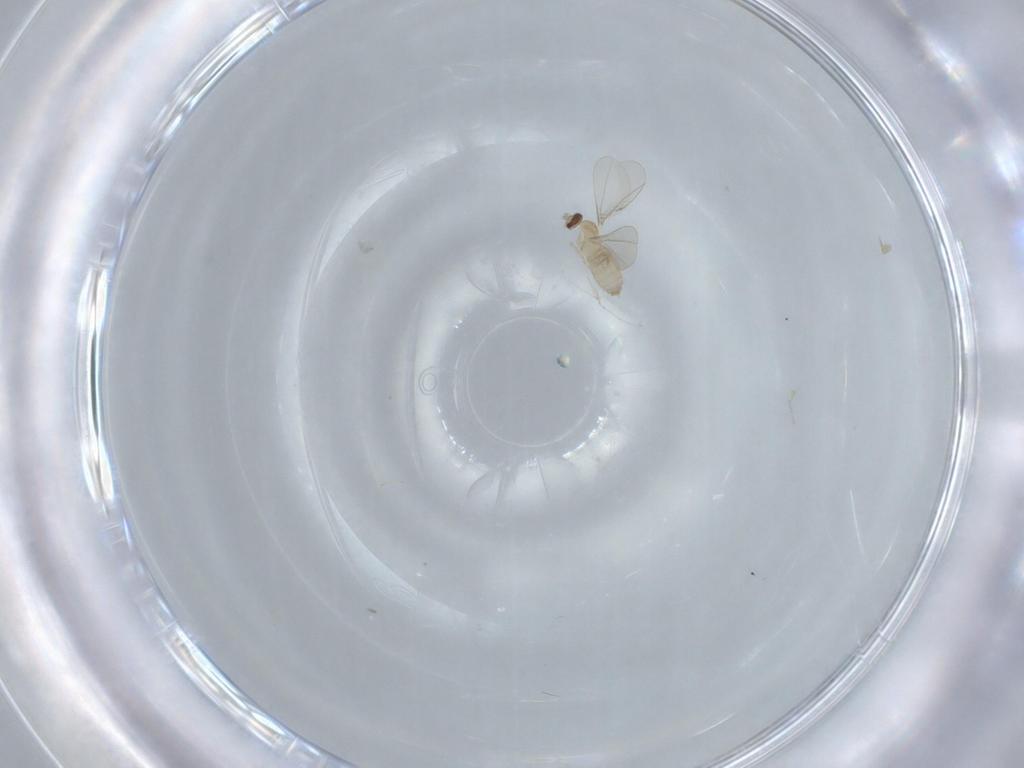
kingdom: Animalia
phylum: Arthropoda
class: Insecta
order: Diptera
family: Cecidomyiidae
